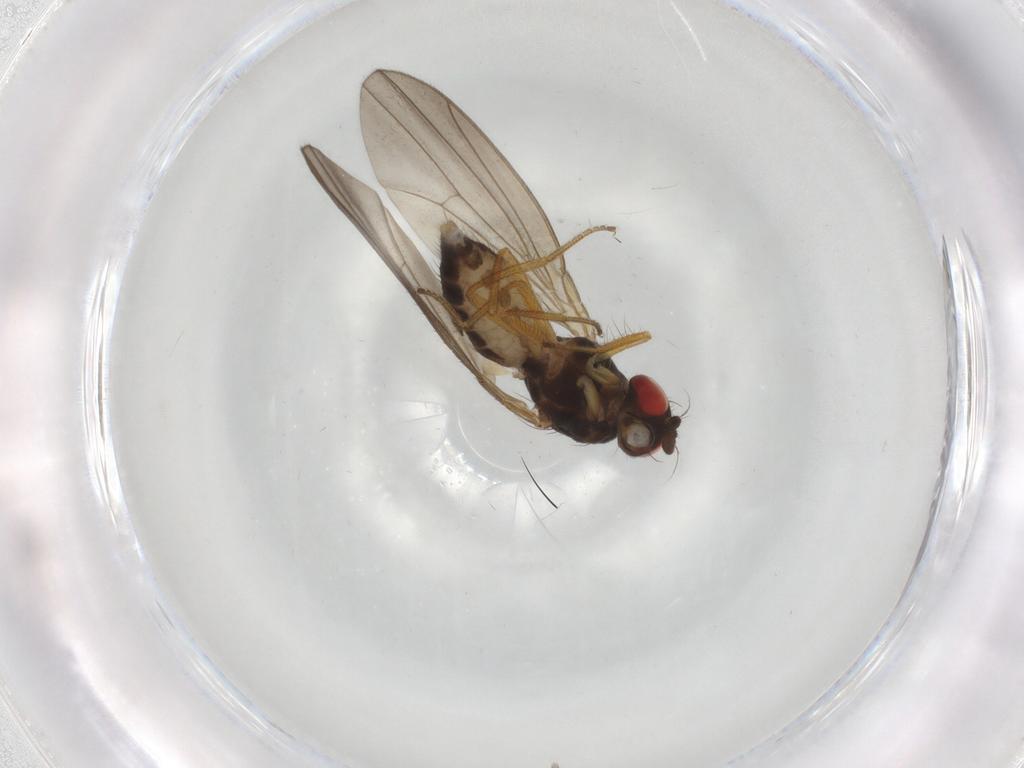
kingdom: Animalia
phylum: Arthropoda
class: Insecta
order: Diptera
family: Drosophilidae
